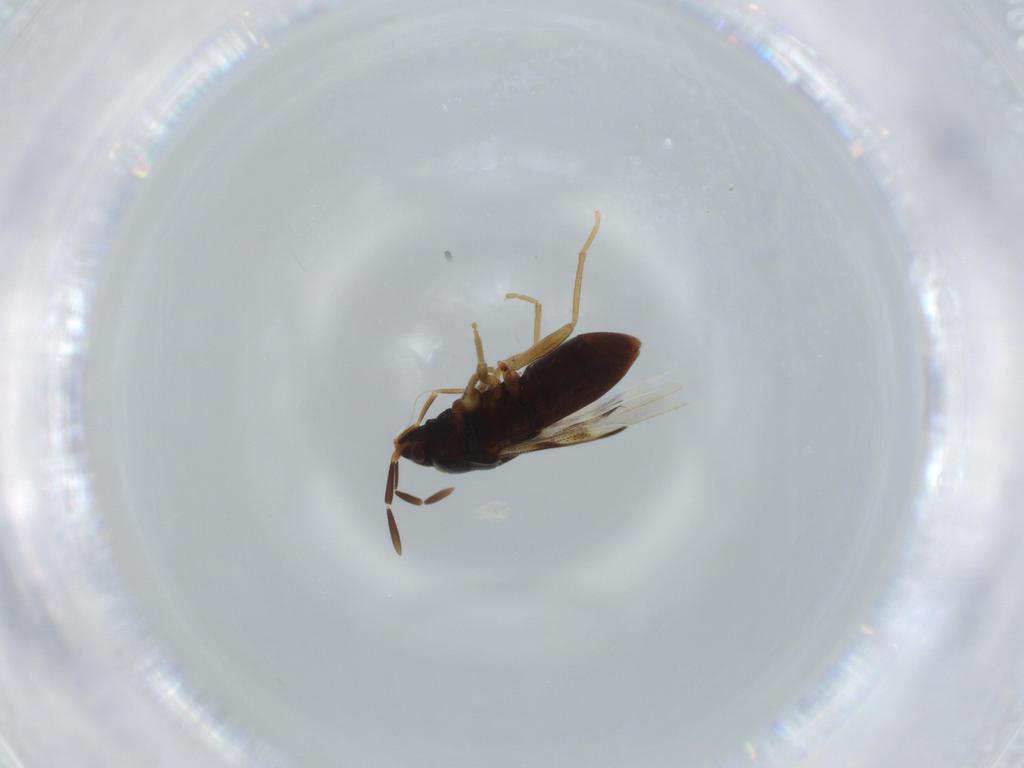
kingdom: Animalia
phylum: Arthropoda
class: Insecta
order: Hemiptera
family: Rhyparochromidae
